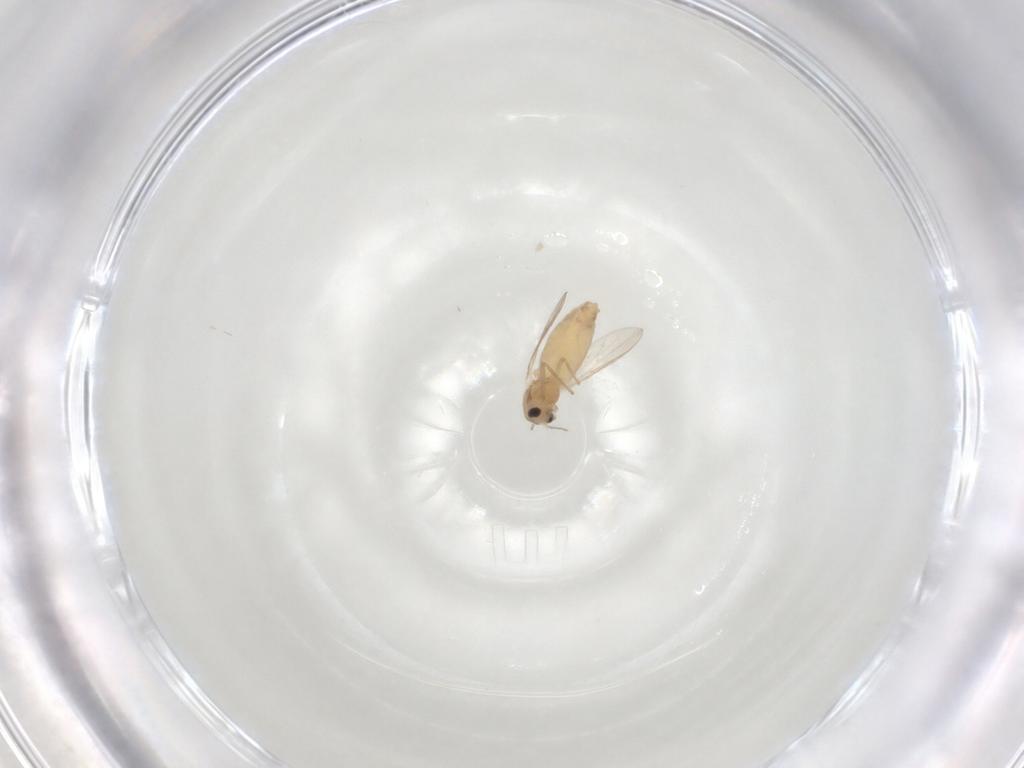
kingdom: Animalia
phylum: Arthropoda
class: Insecta
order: Diptera
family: Chironomidae
